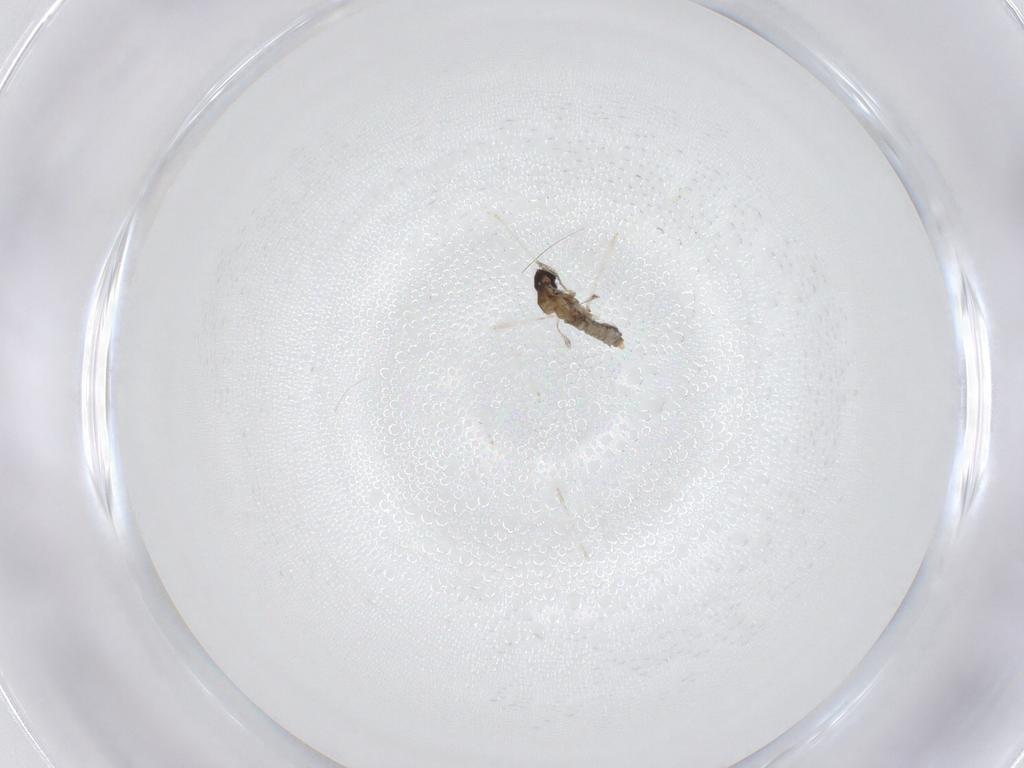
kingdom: Animalia
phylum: Arthropoda
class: Insecta
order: Diptera
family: Cecidomyiidae
